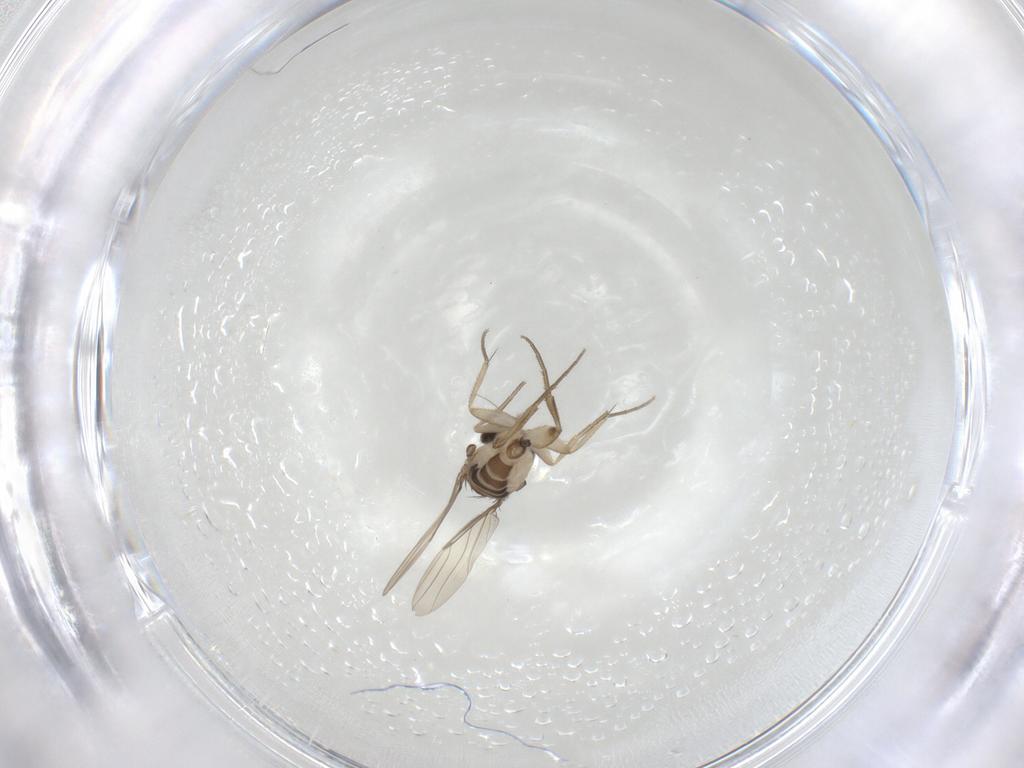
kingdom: Animalia
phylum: Arthropoda
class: Insecta
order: Diptera
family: Phoridae
